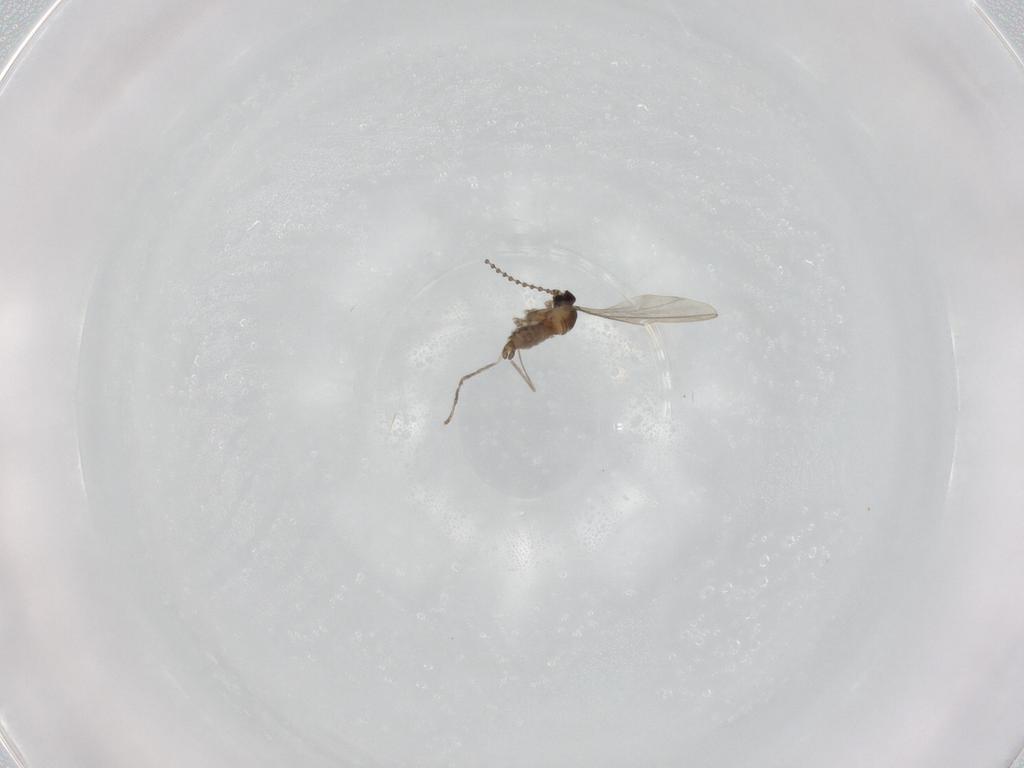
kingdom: Animalia
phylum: Arthropoda
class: Insecta
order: Diptera
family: Cecidomyiidae
